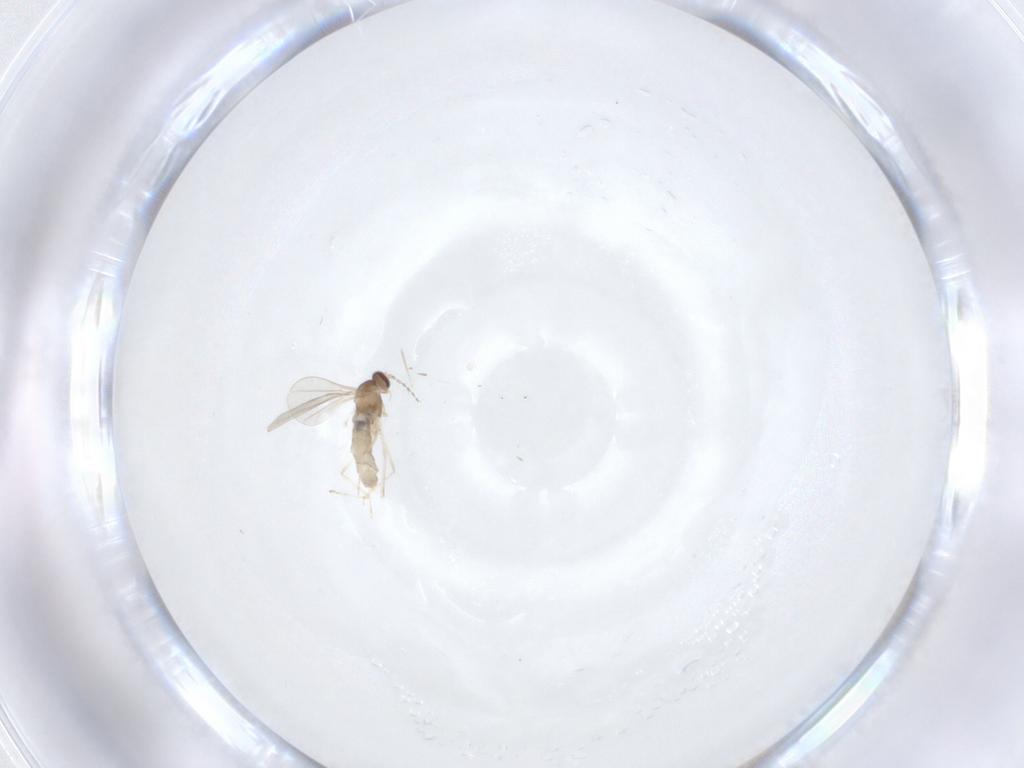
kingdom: Animalia
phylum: Arthropoda
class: Insecta
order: Diptera
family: Cecidomyiidae
